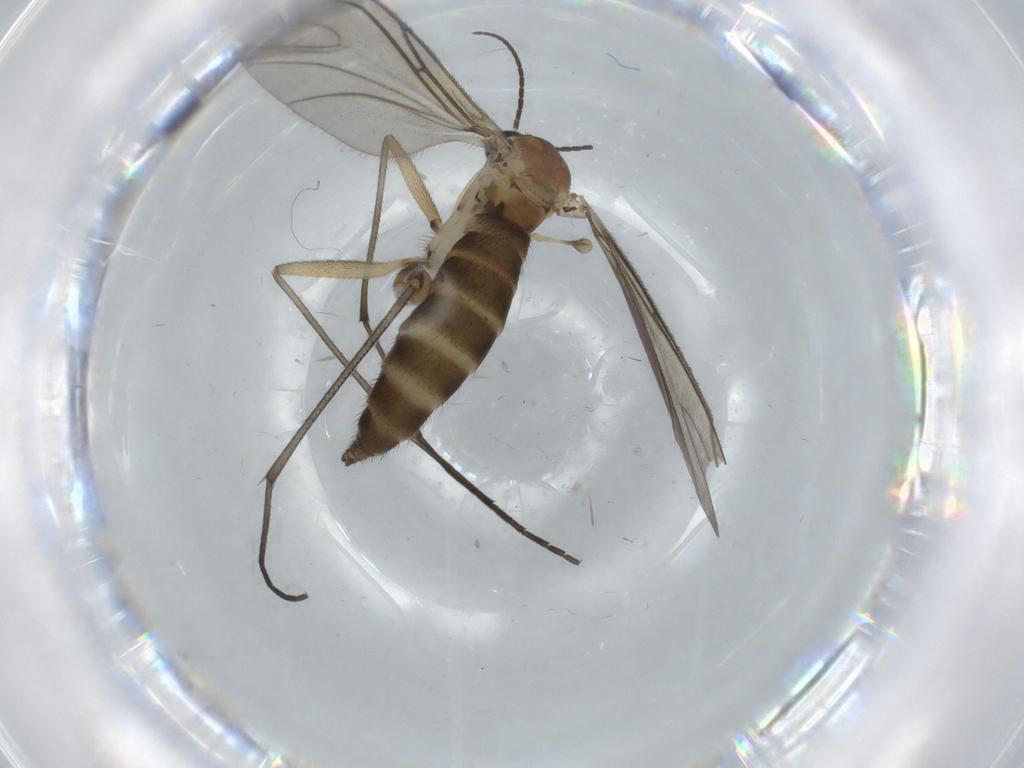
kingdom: Animalia
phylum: Arthropoda
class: Insecta
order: Diptera
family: Sciaridae
